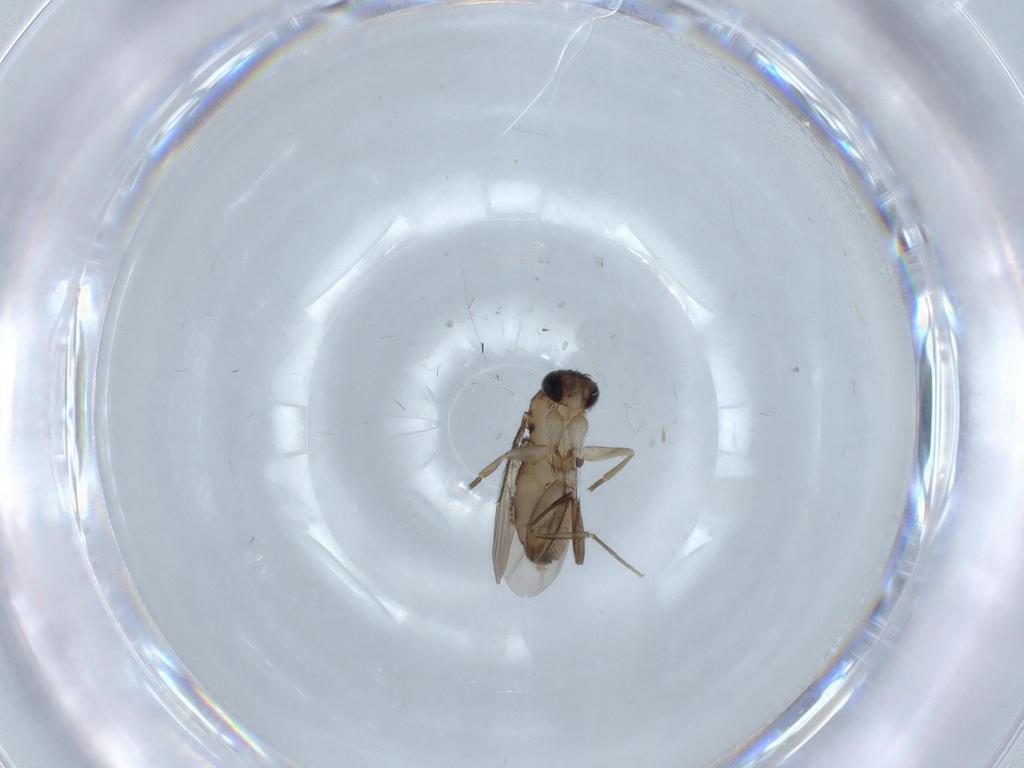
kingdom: Animalia
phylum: Arthropoda
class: Insecta
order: Diptera
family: Phoridae
